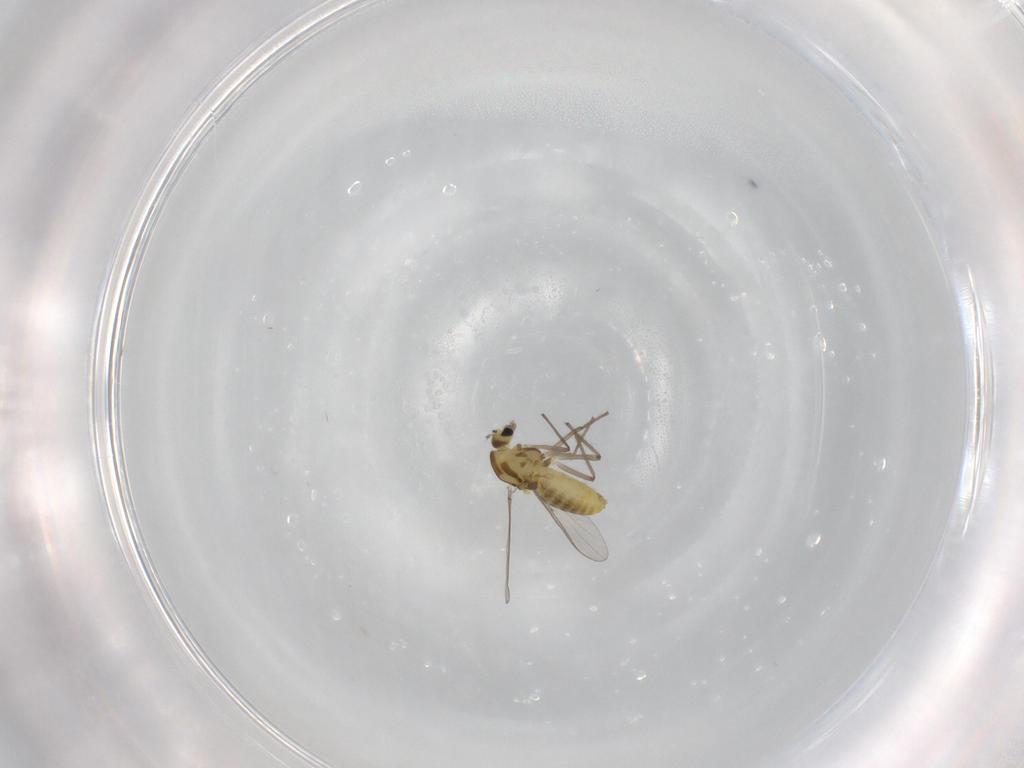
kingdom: Animalia
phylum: Arthropoda
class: Insecta
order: Diptera
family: Chironomidae
